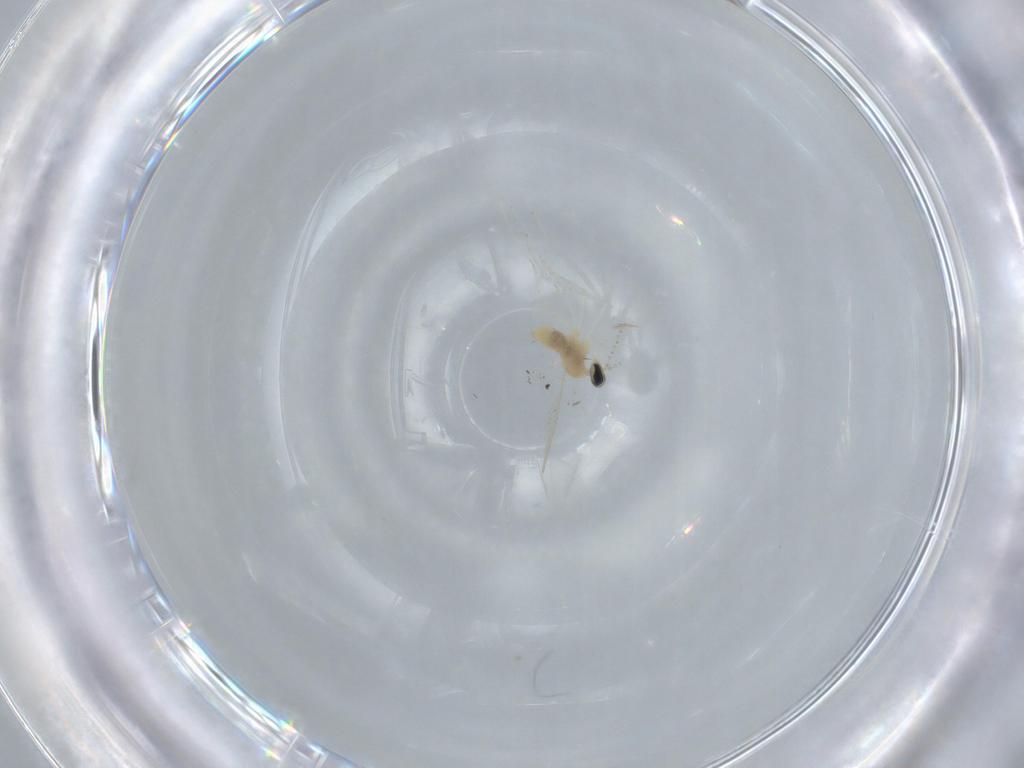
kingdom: Animalia
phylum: Arthropoda
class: Insecta
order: Diptera
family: Cecidomyiidae
